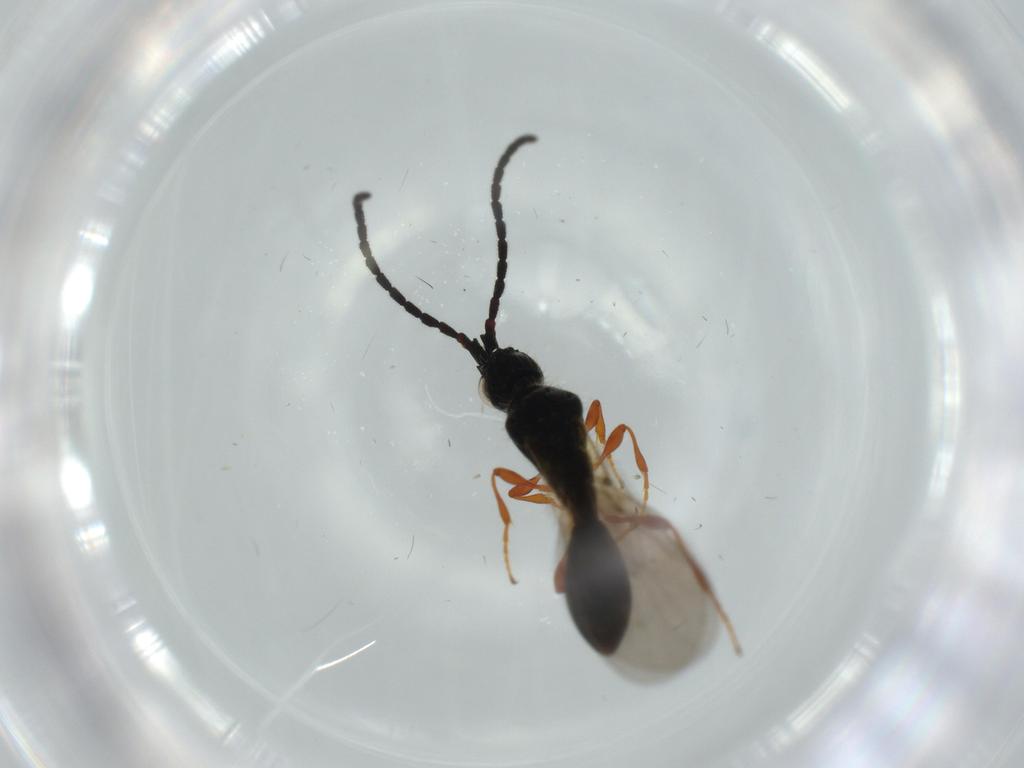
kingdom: Animalia
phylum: Arthropoda
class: Insecta
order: Hymenoptera
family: Diapriidae
